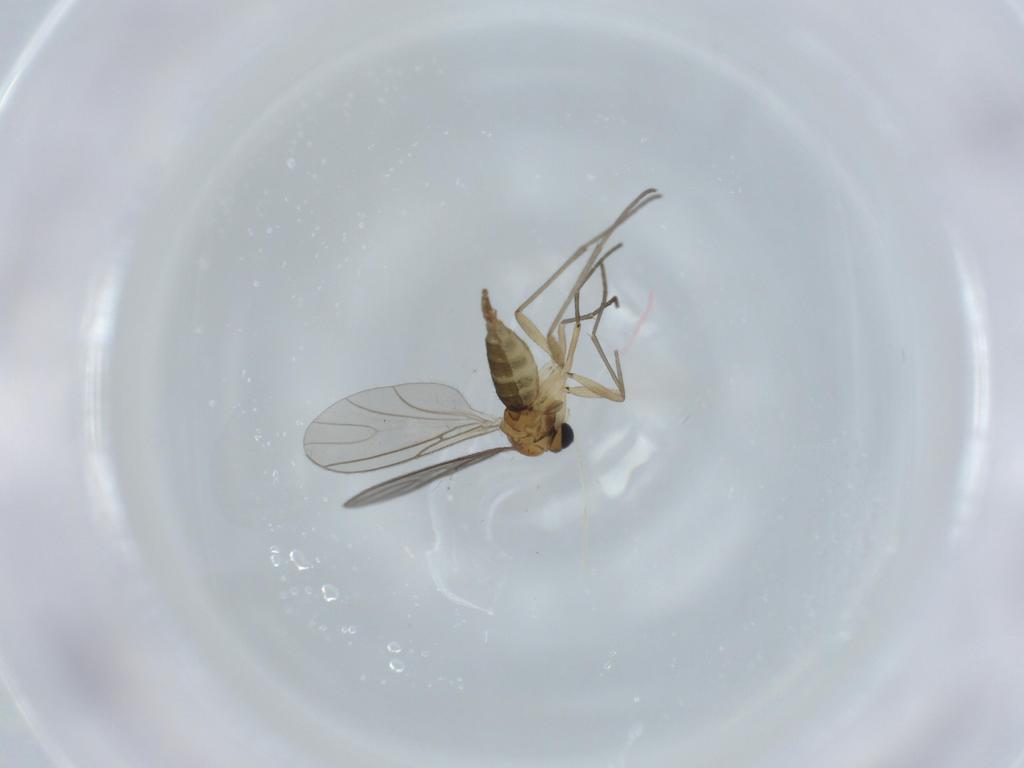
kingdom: Animalia
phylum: Arthropoda
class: Insecta
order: Diptera
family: Sciaridae
